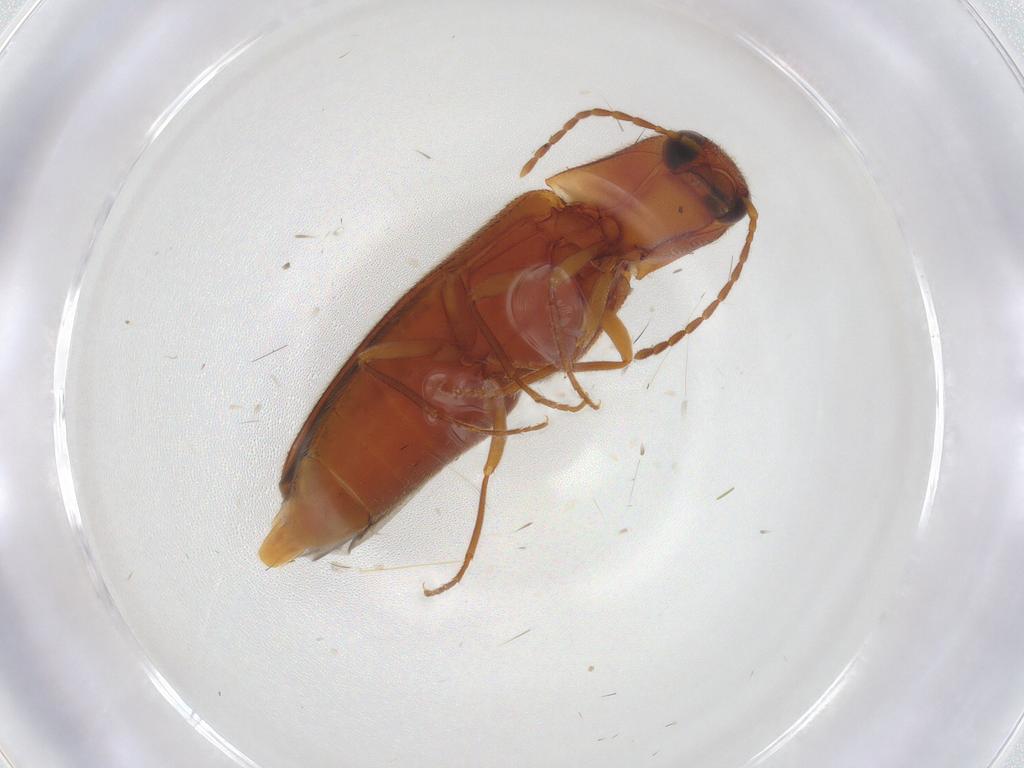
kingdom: Animalia
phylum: Arthropoda
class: Insecta
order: Coleoptera
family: Elateridae
